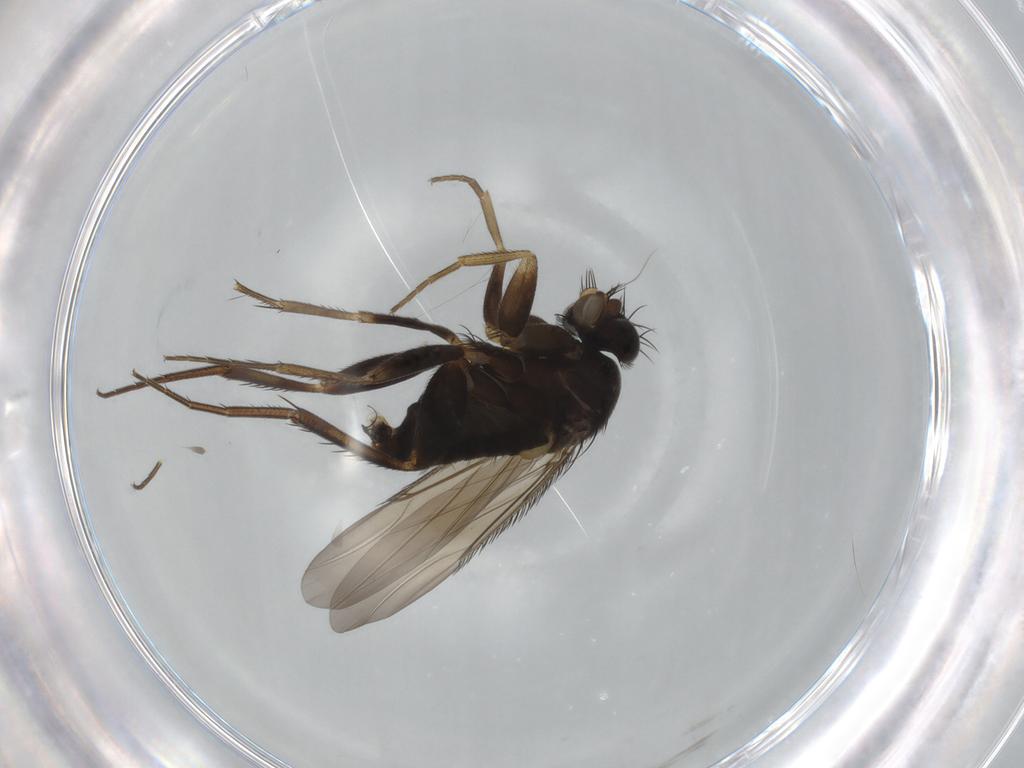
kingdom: Animalia
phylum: Arthropoda
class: Insecta
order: Diptera
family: Phoridae
